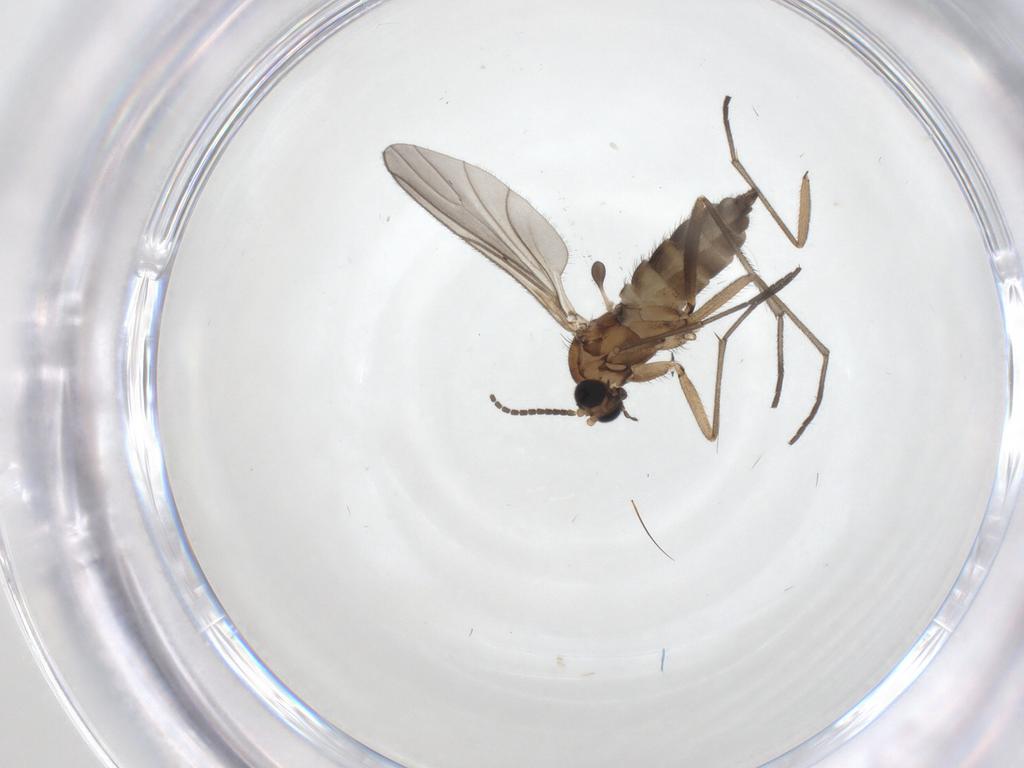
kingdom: Animalia
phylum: Arthropoda
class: Insecta
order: Diptera
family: Sciaridae
